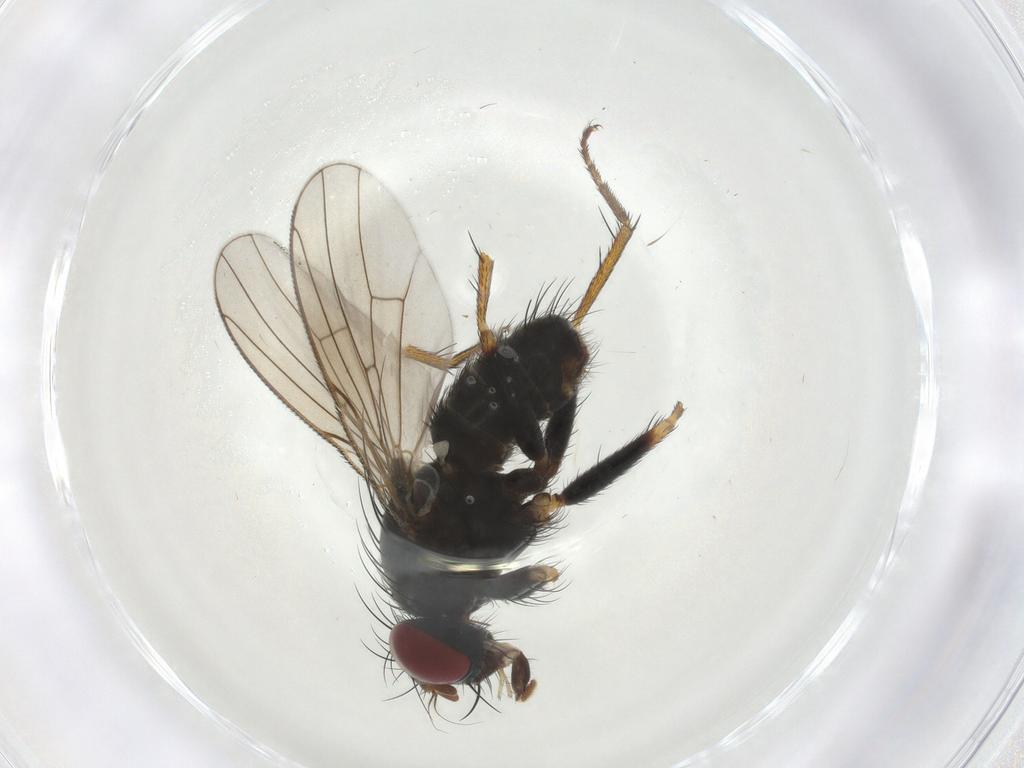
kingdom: Animalia
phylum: Arthropoda
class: Insecta
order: Diptera
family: Muscidae
